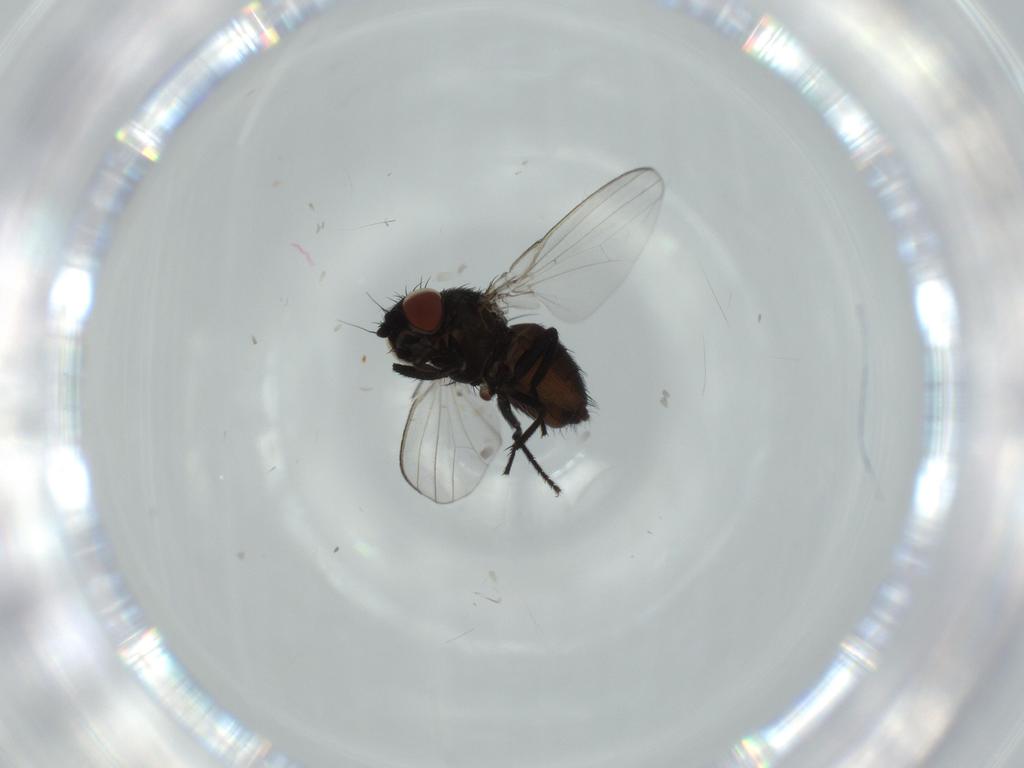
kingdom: Animalia
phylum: Arthropoda
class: Insecta
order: Diptera
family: Milichiidae
